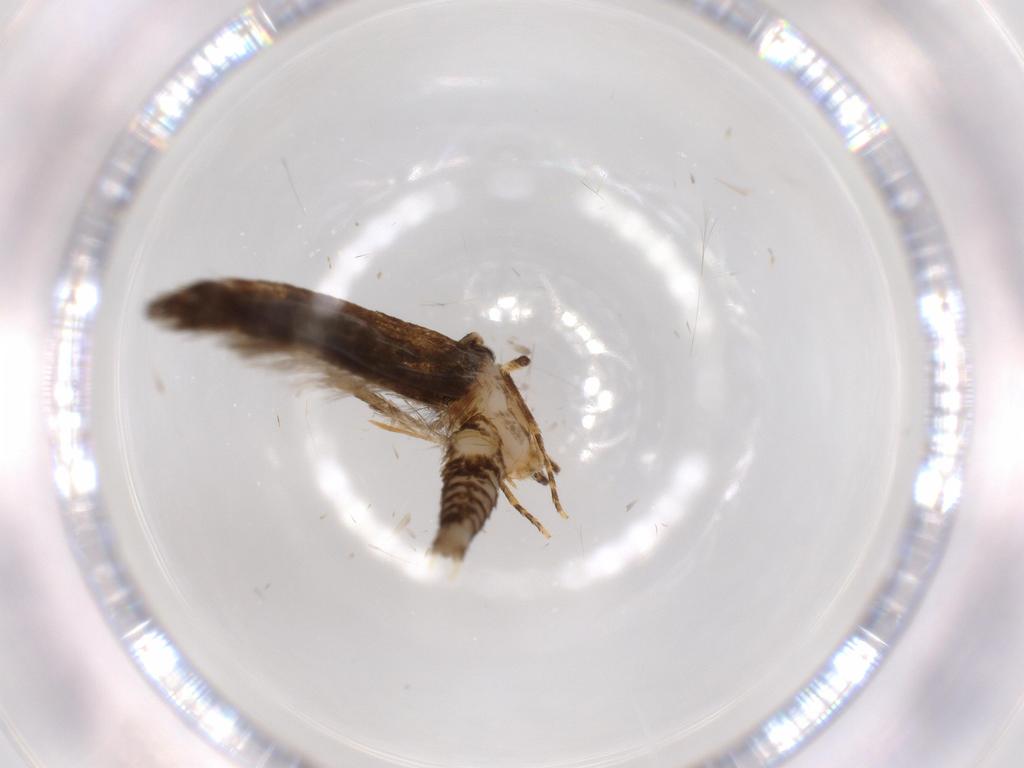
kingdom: Animalia
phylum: Arthropoda
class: Insecta
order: Lepidoptera
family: Tineidae
